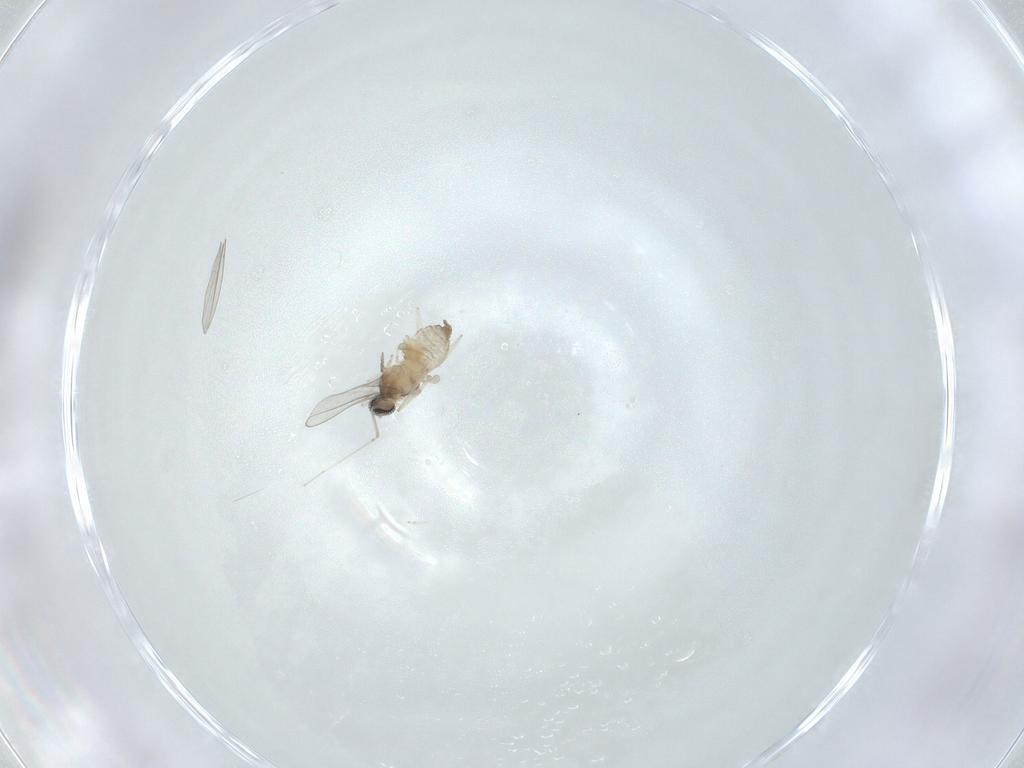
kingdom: Animalia
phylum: Arthropoda
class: Insecta
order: Diptera
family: Cecidomyiidae
